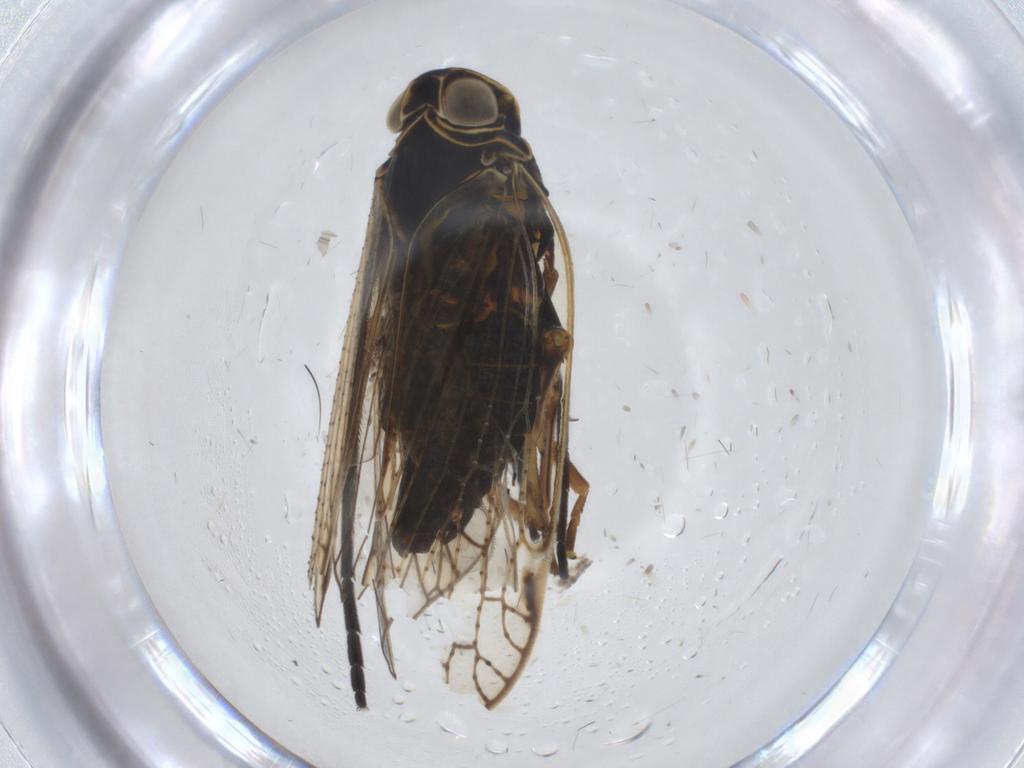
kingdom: Animalia
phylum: Arthropoda
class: Insecta
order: Hemiptera
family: Cixiidae
